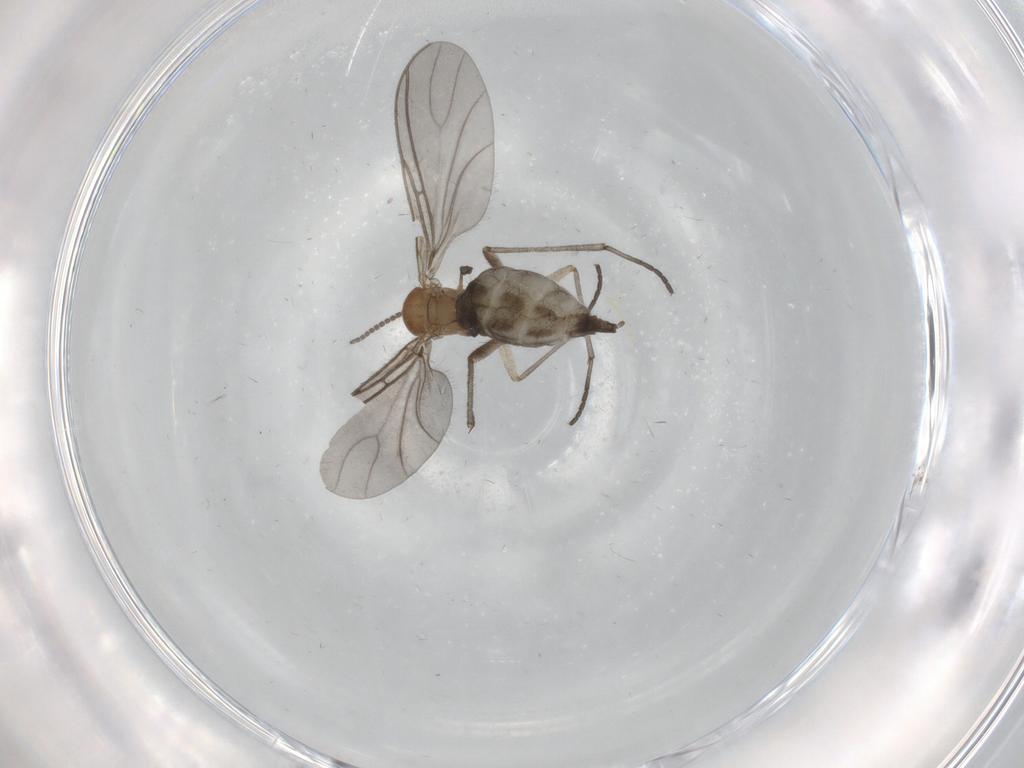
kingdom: Animalia
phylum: Arthropoda
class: Insecta
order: Diptera
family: Sciaridae
